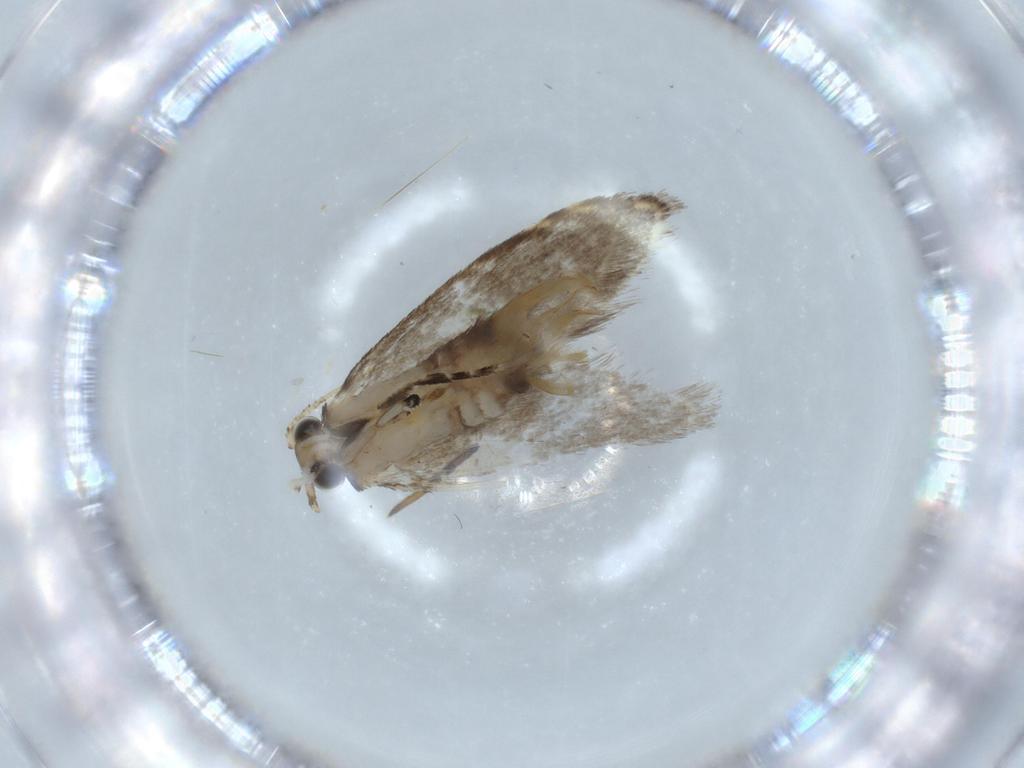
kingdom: Animalia
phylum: Arthropoda
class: Insecta
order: Lepidoptera
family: Tineidae
